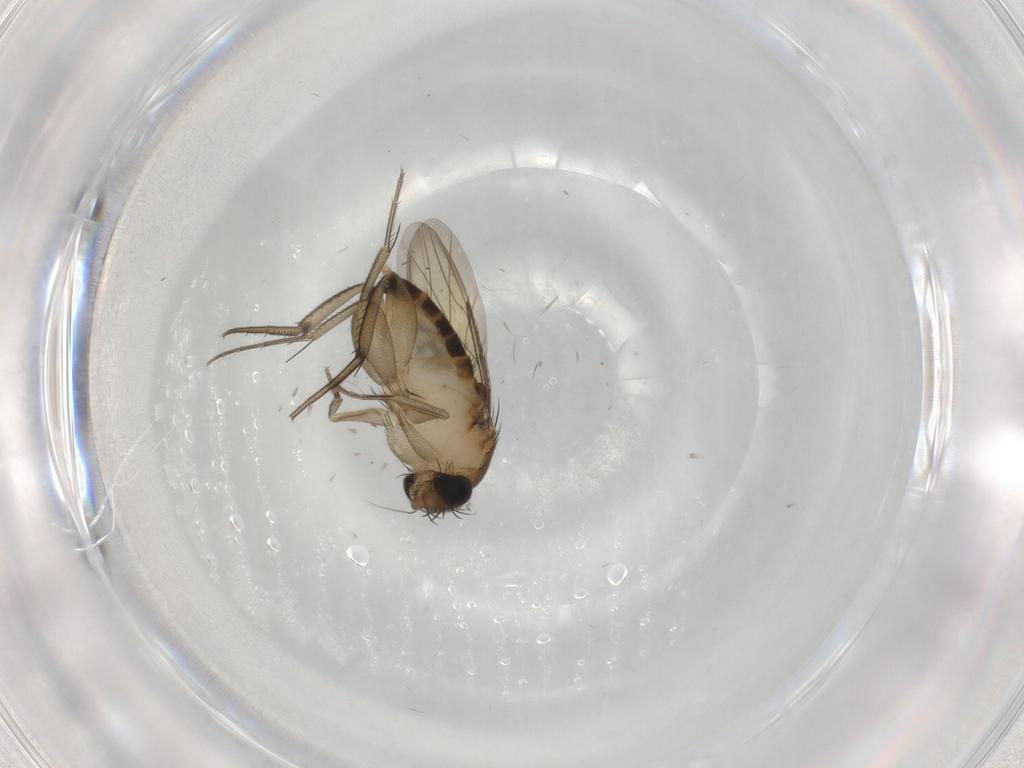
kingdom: Animalia
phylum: Arthropoda
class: Insecta
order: Diptera
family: Phoridae
